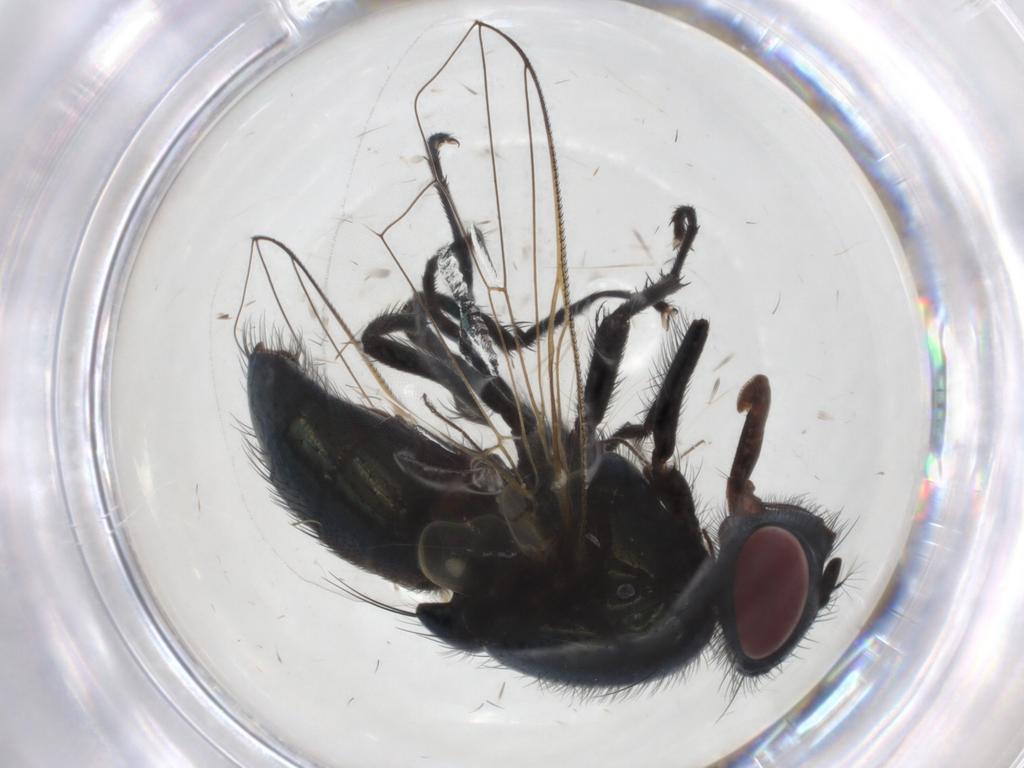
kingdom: Animalia
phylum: Arthropoda
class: Insecta
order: Diptera
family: Chironomidae
